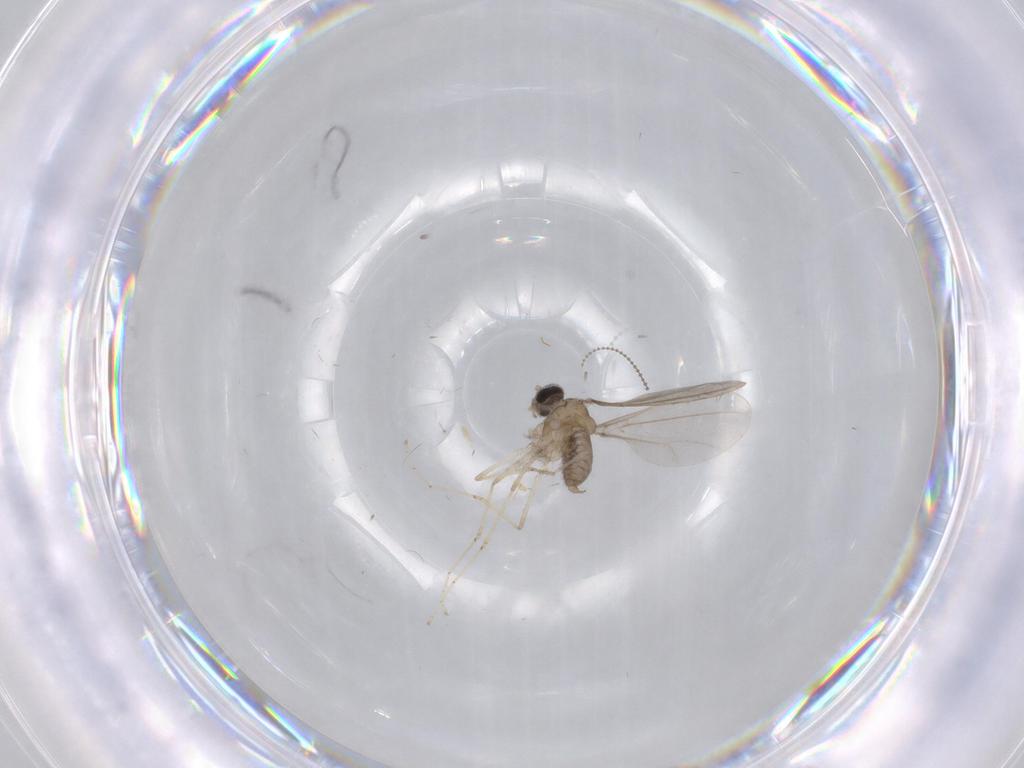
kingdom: Animalia
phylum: Arthropoda
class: Insecta
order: Diptera
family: Cecidomyiidae
